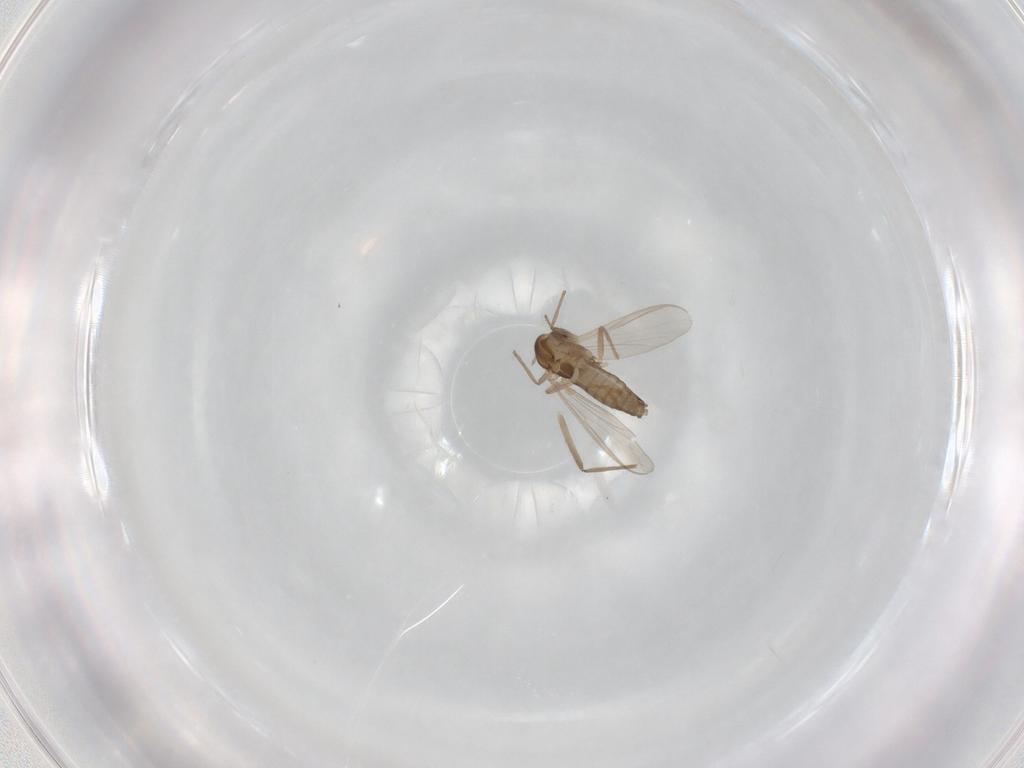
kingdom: Animalia
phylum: Arthropoda
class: Insecta
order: Diptera
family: Chironomidae
